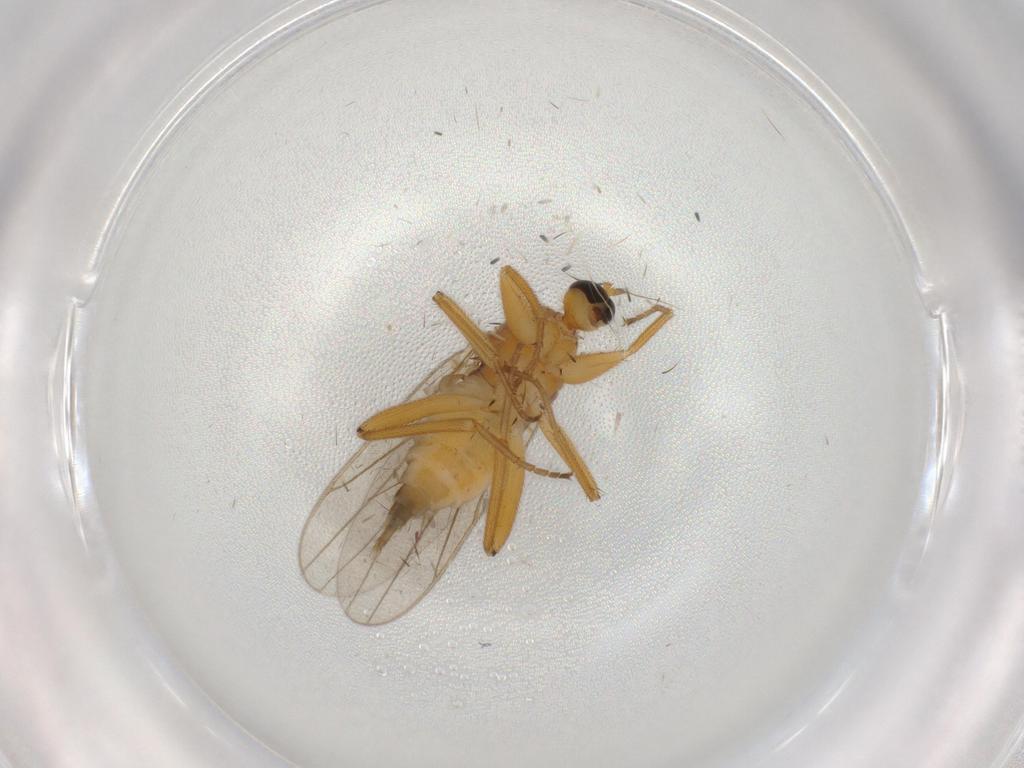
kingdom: Animalia
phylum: Arthropoda
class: Insecta
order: Diptera
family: Hybotidae
